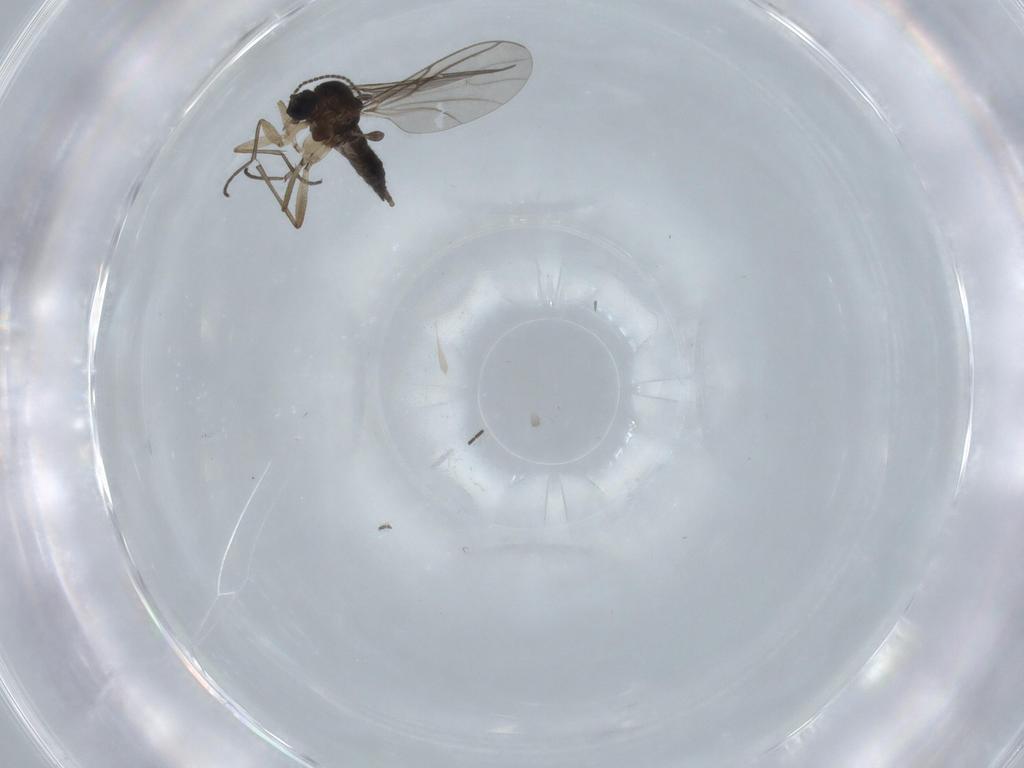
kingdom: Animalia
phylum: Arthropoda
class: Insecta
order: Diptera
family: Sciaridae
